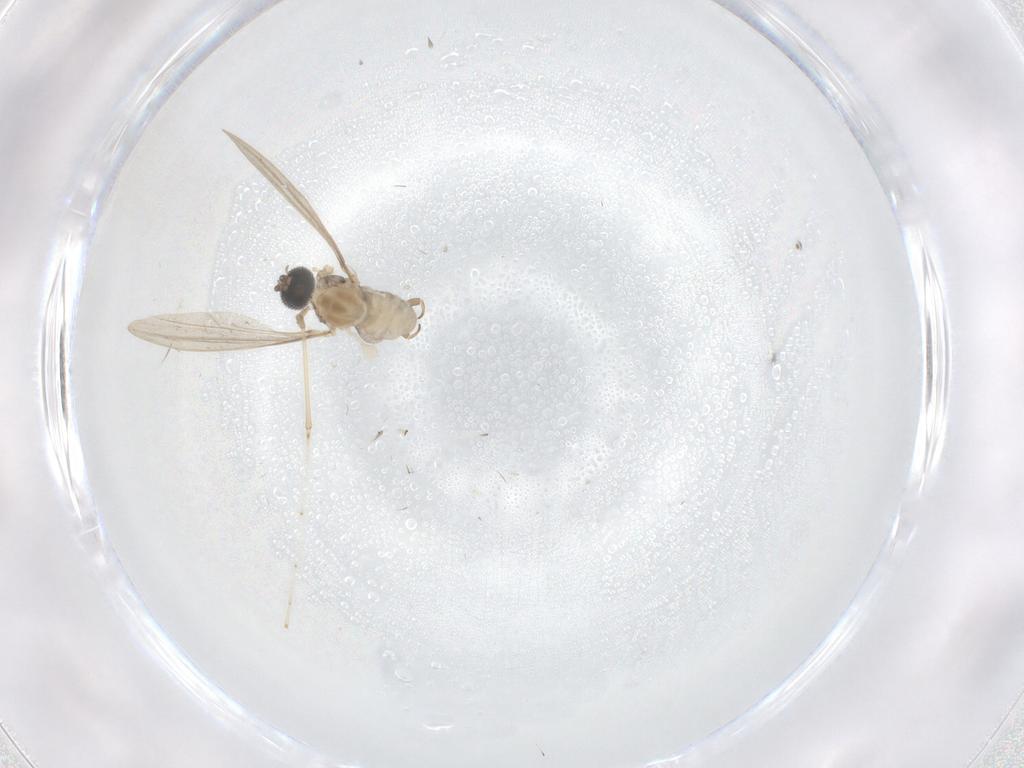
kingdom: Animalia
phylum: Arthropoda
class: Insecta
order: Diptera
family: Cecidomyiidae
